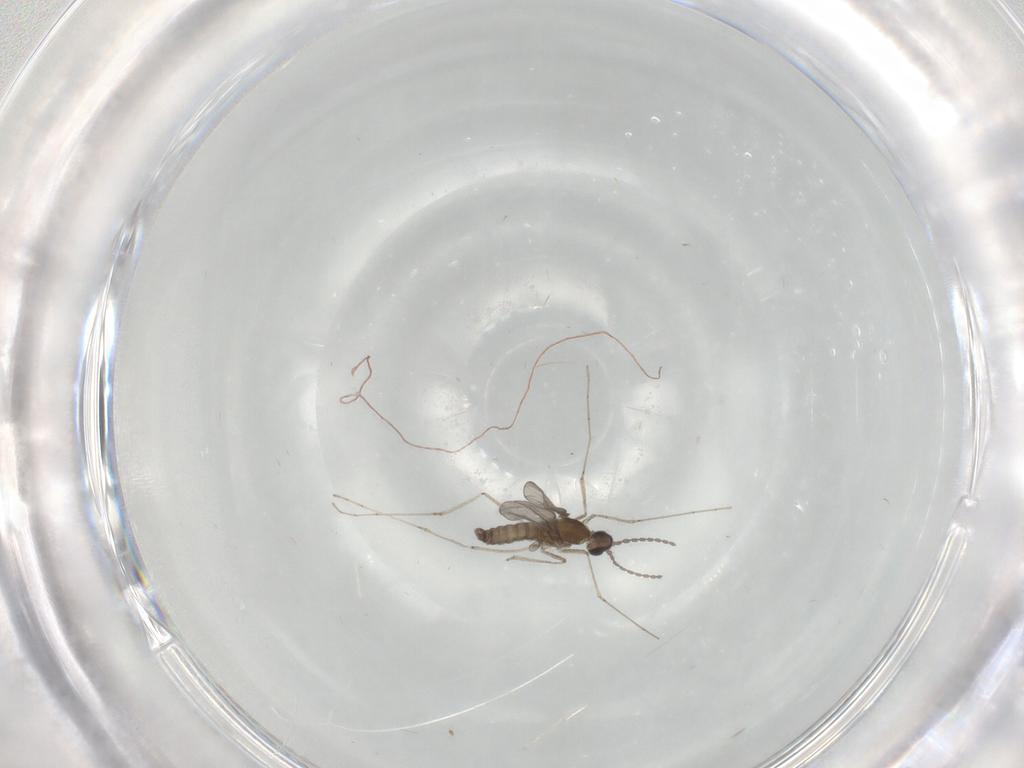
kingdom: Animalia
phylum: Arthropoda
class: Insecta
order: Diptera
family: Cecidomyiidae
